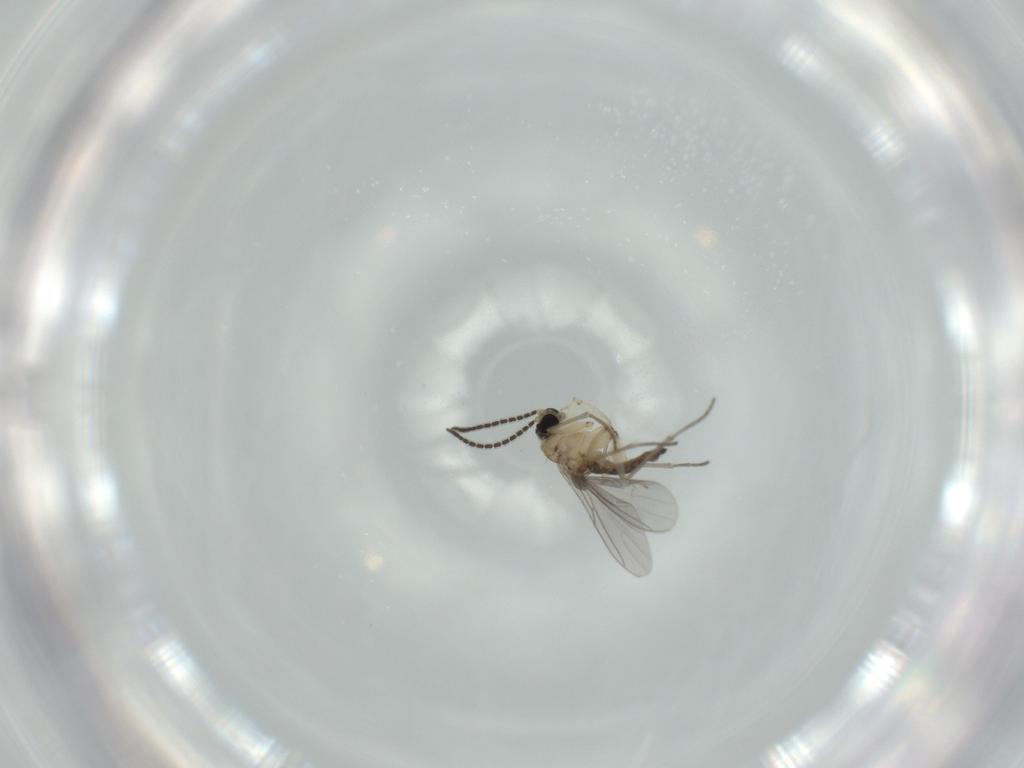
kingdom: Animalia
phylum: Arthropoda
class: Insecta
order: Diptera
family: Sciaridae
